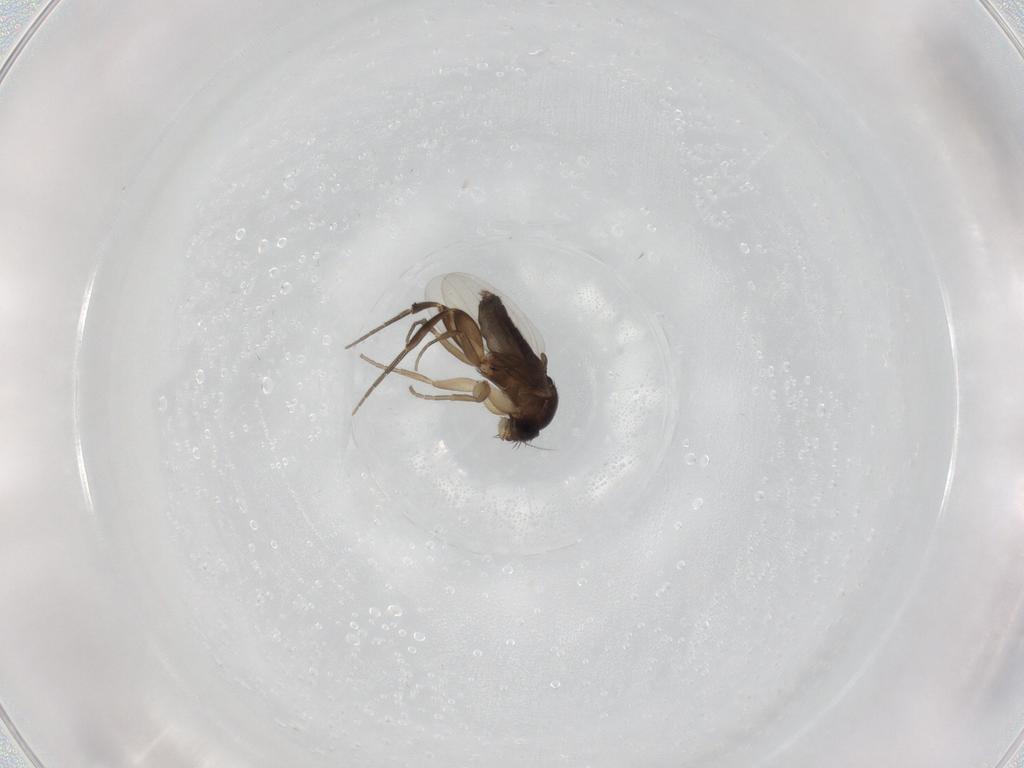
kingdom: Animalia
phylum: Arthropoda
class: Insecta
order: Diptera
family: Phoridae
